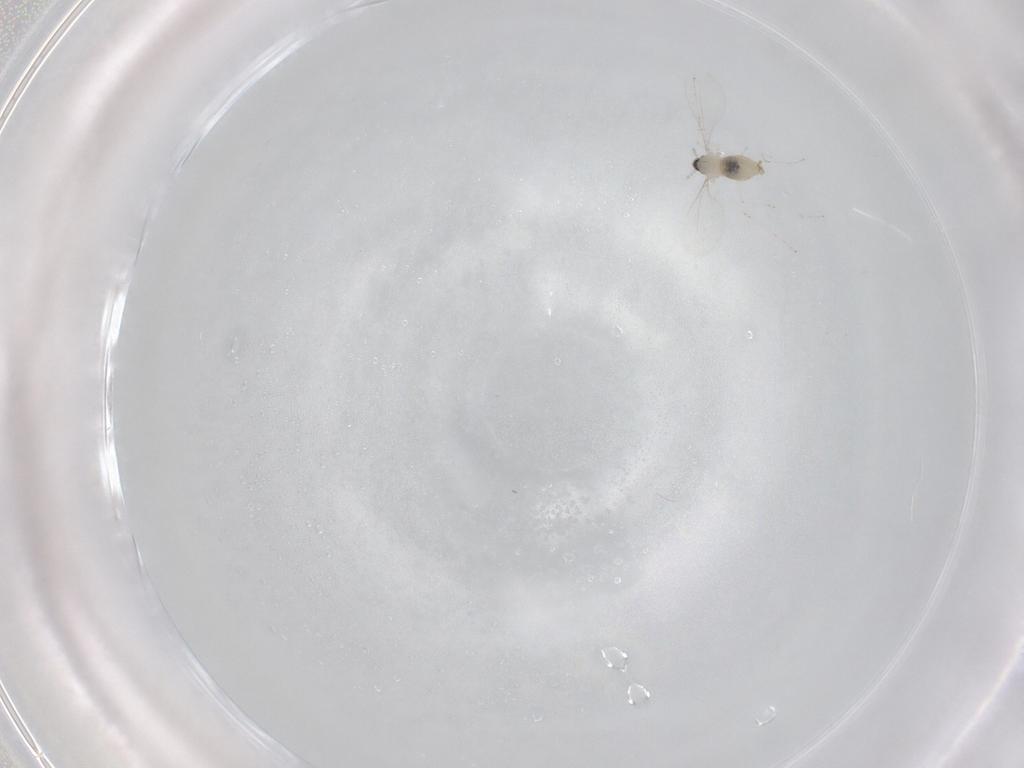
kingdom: Animalia
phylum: Arthropoda
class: Insecta
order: Diptera
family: Cecidomyiidae
